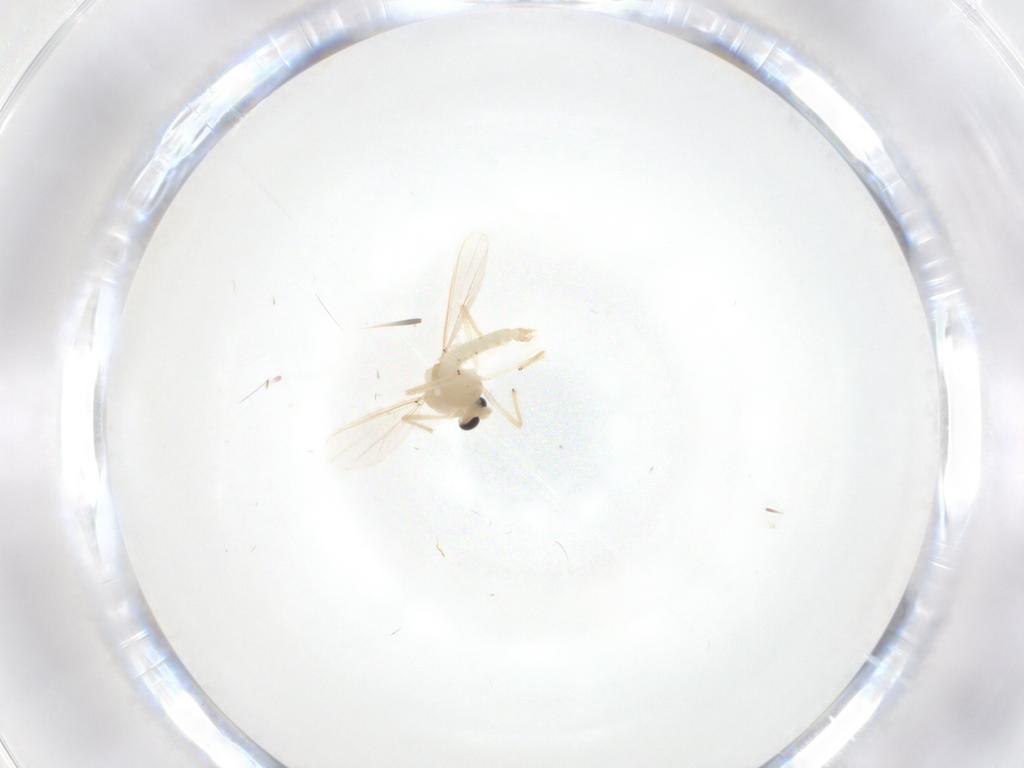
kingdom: Animalia
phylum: Arthropoda
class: Insecta
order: Diptera
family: Chironomidae
